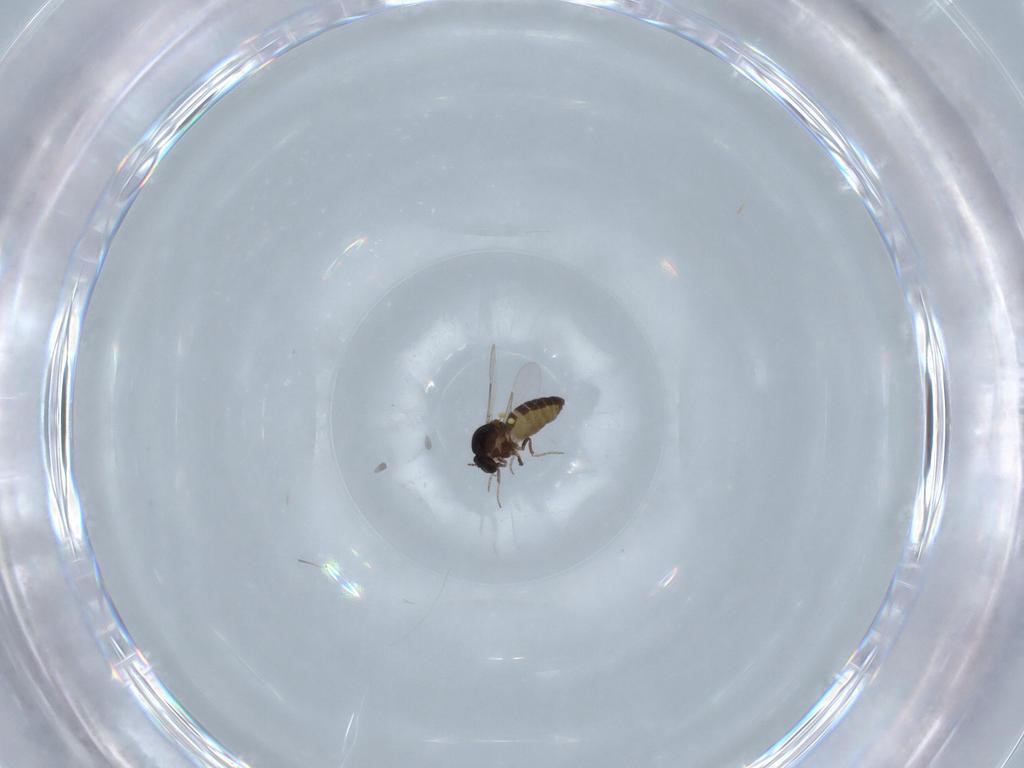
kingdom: Animalia
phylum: Arthropoda
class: Insecta
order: Diptera
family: Ceratopogonidae
